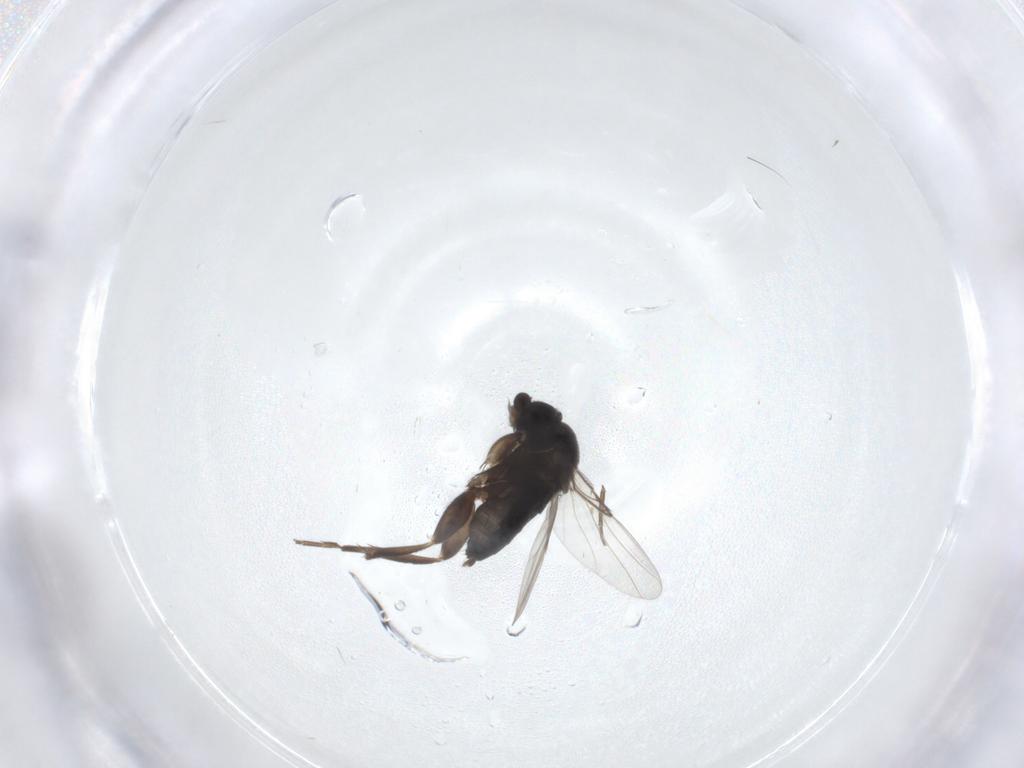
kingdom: Animalia
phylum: Arthropoda
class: Insecta
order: Diptera
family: Phoridae
